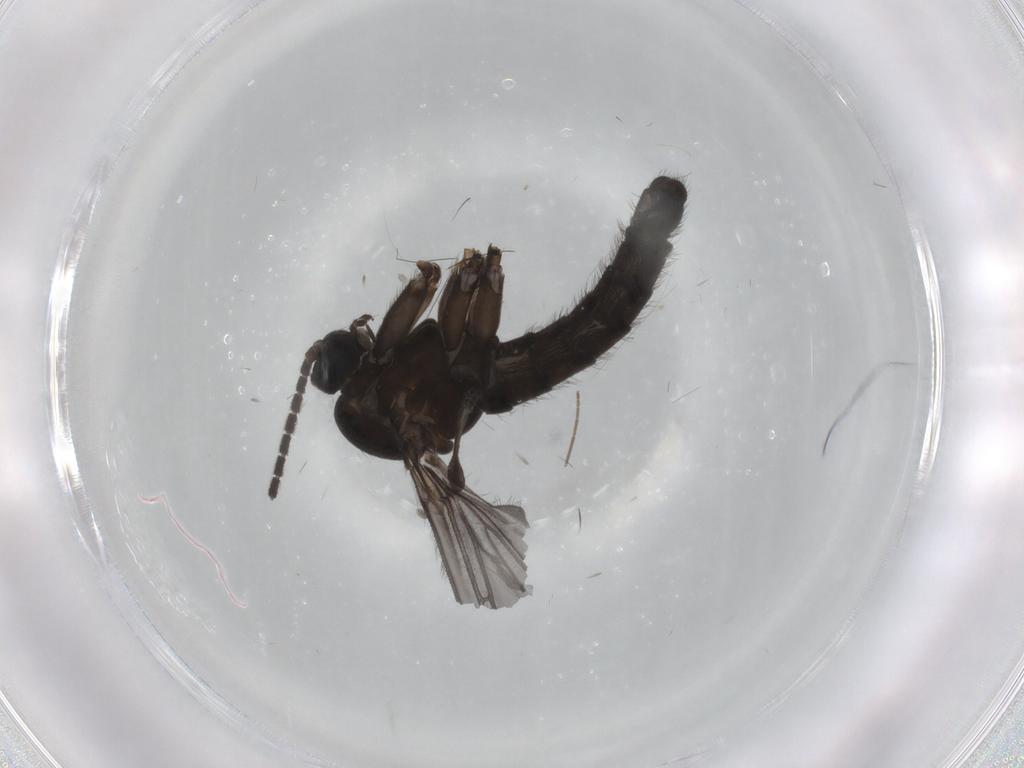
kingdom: Animalia
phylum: Arthropoda
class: Insecta
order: Diptera
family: Sciaridae
